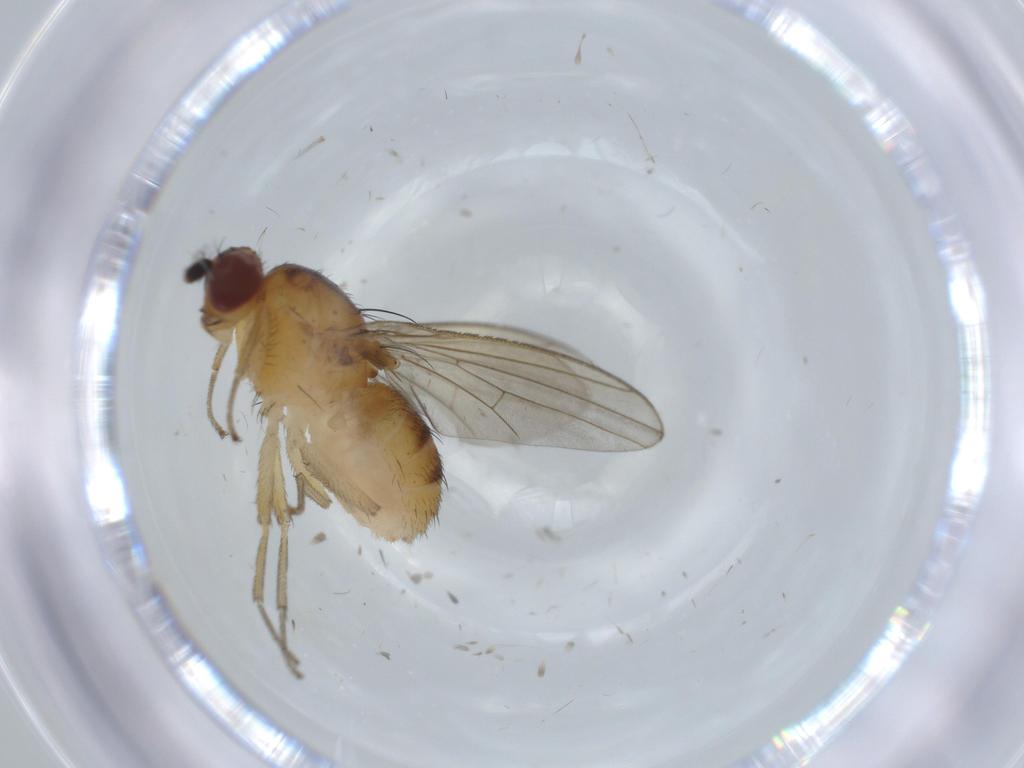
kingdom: Animalia
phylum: Arthropoda
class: Insecta
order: Diptera
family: Lauxaniidae
